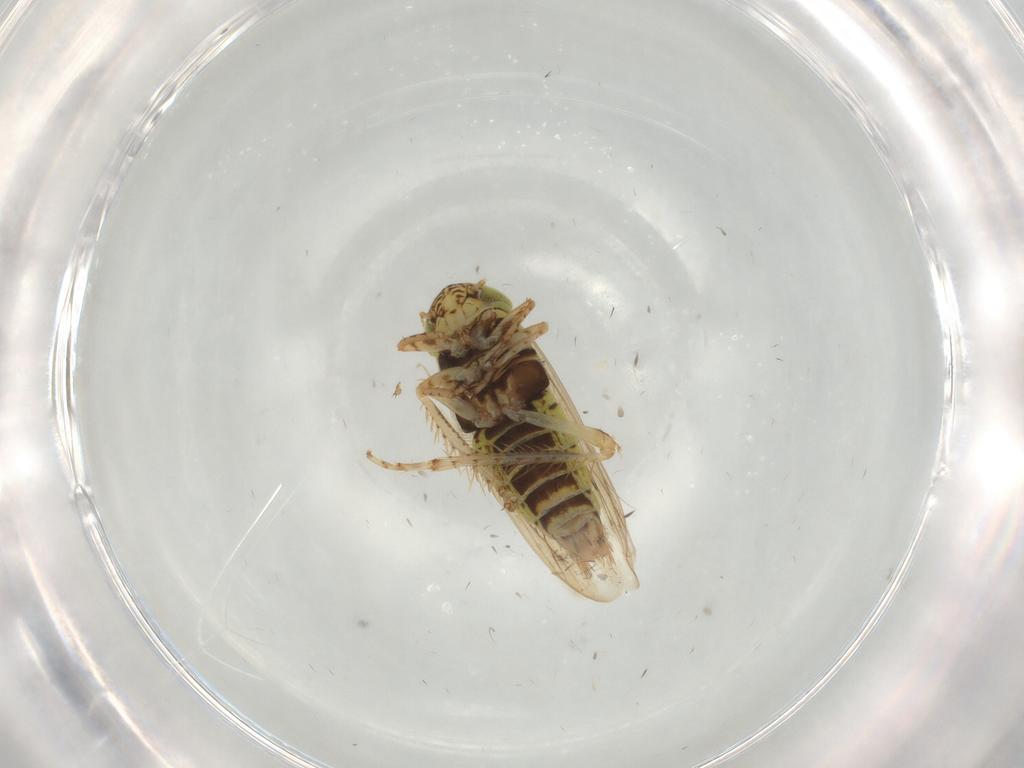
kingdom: Animalia
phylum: Arthropoda
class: Insecta
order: Hemiptera
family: Cicadellidae
